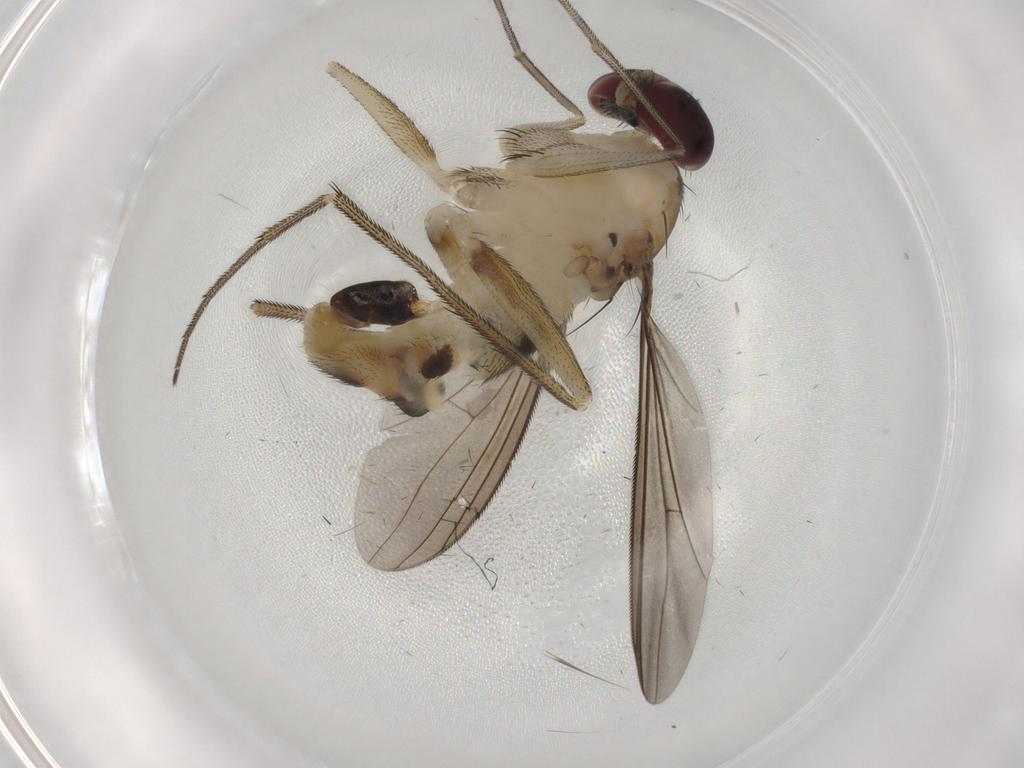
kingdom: Animalia
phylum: Arthropoda
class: Insecta
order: Diptera
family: Dolichopodidae
